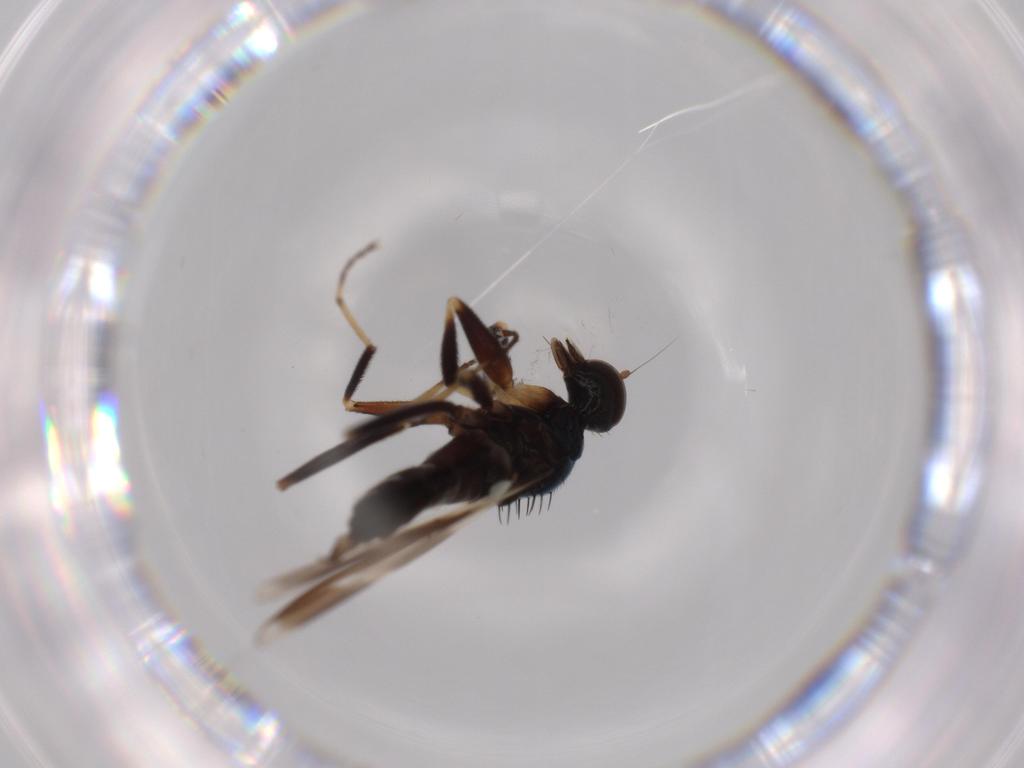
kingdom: Animalia
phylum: Arthropoda
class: Insecta
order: Diptera
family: Hybotidae
